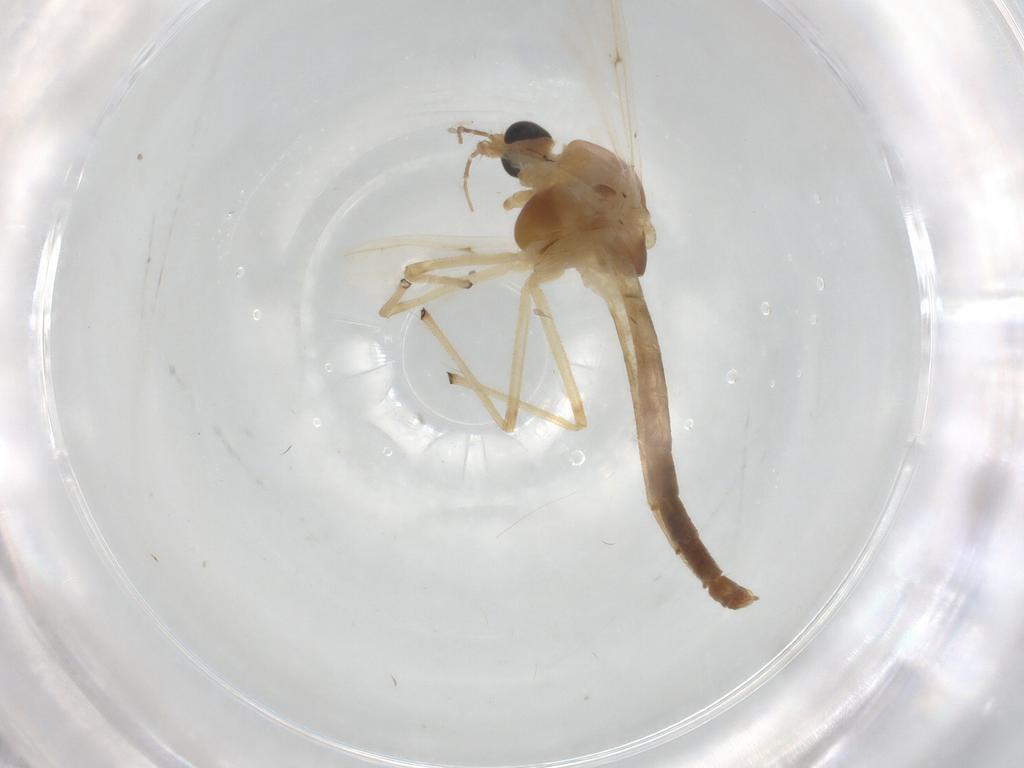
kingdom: Animalia
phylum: Arthropoda
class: Insecta
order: Diptera
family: Chironomidae
